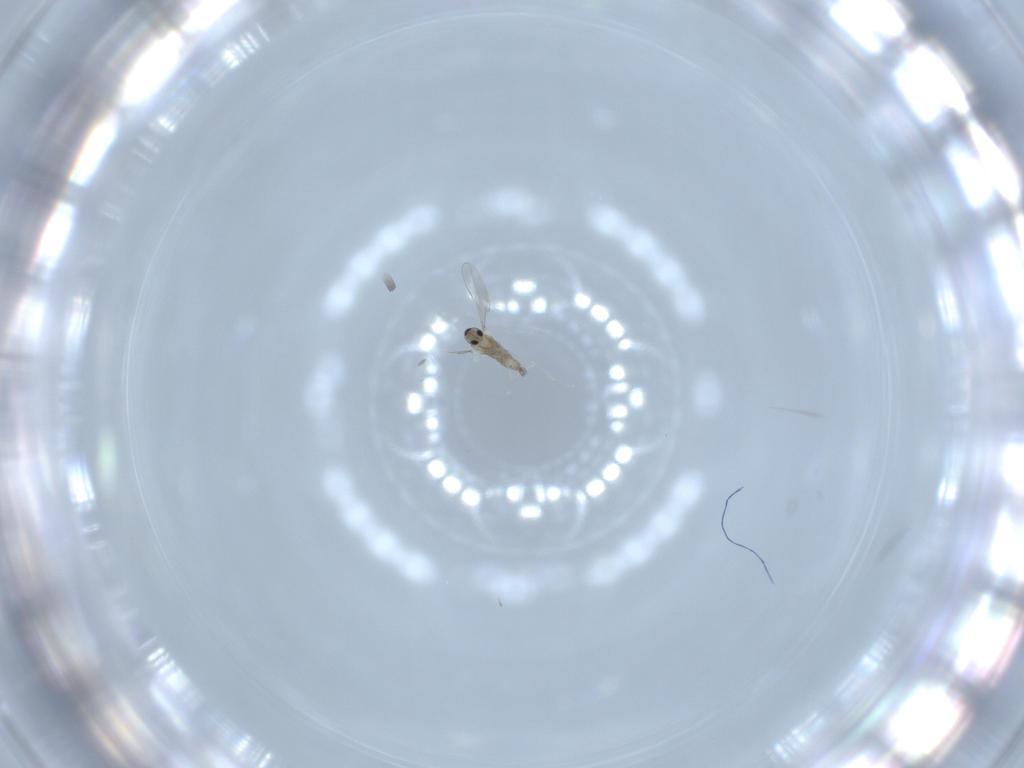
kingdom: Animalia
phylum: Arthropoda
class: Insecta
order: Diptera
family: Cecidomyiidae
